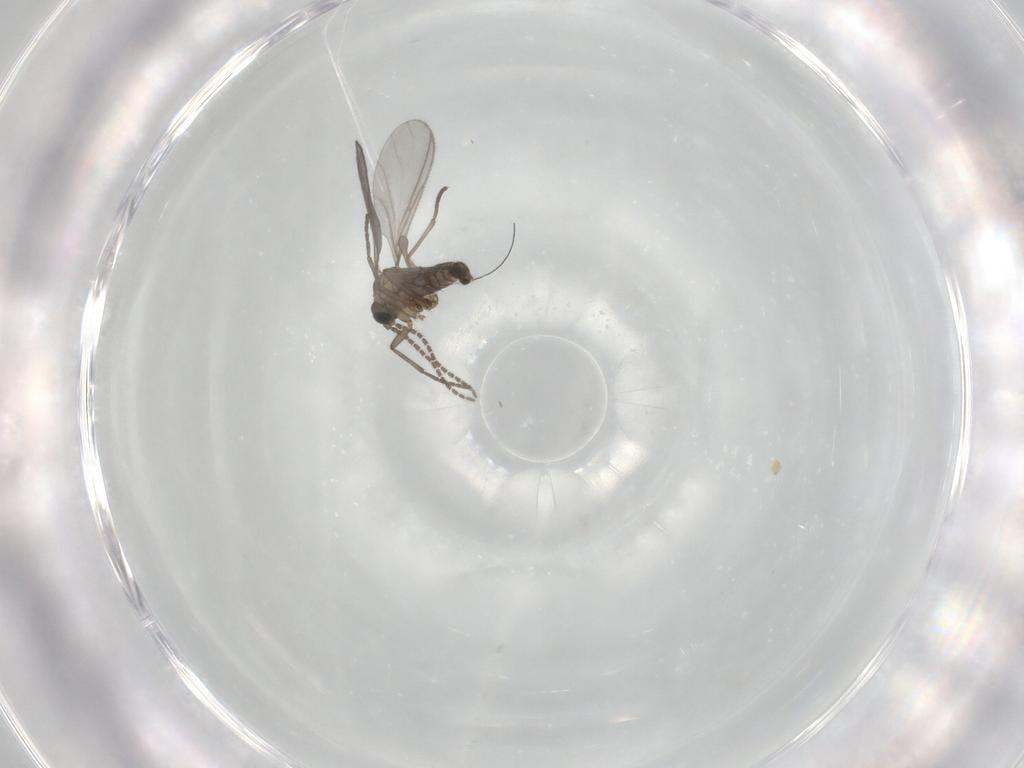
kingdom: Animalia
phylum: Arthropoda
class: Insecta
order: Diptera
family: Sciaridae
